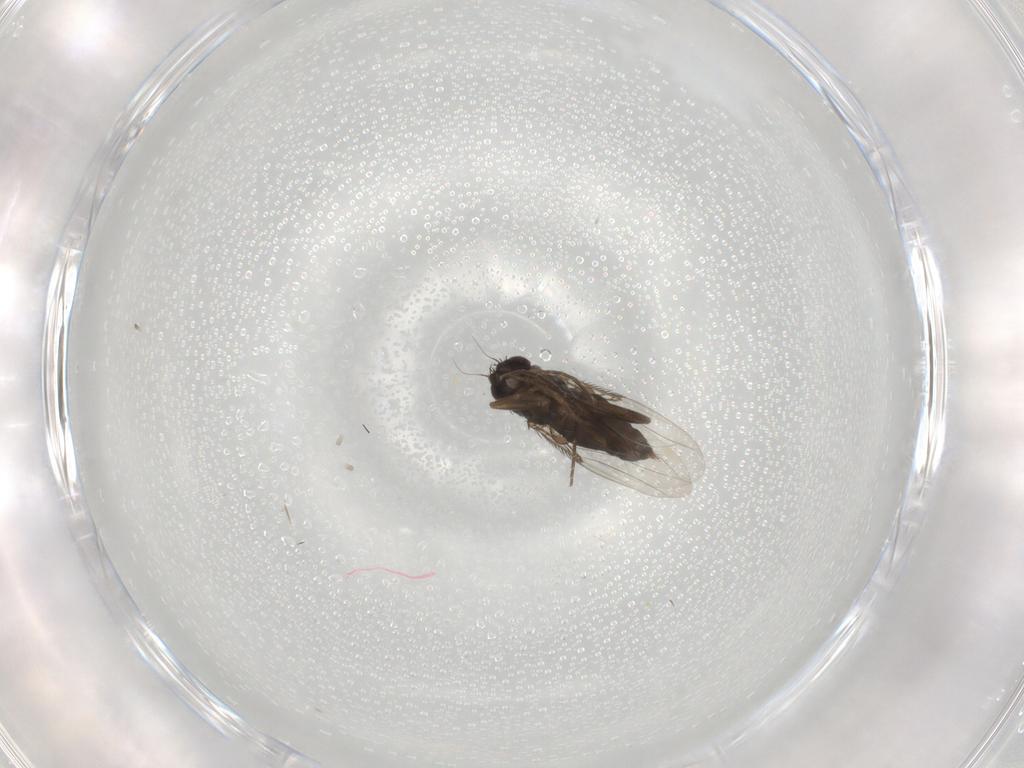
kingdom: Animalia
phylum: Arthropoda
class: Insecta
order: Diptera
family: Phoridae
